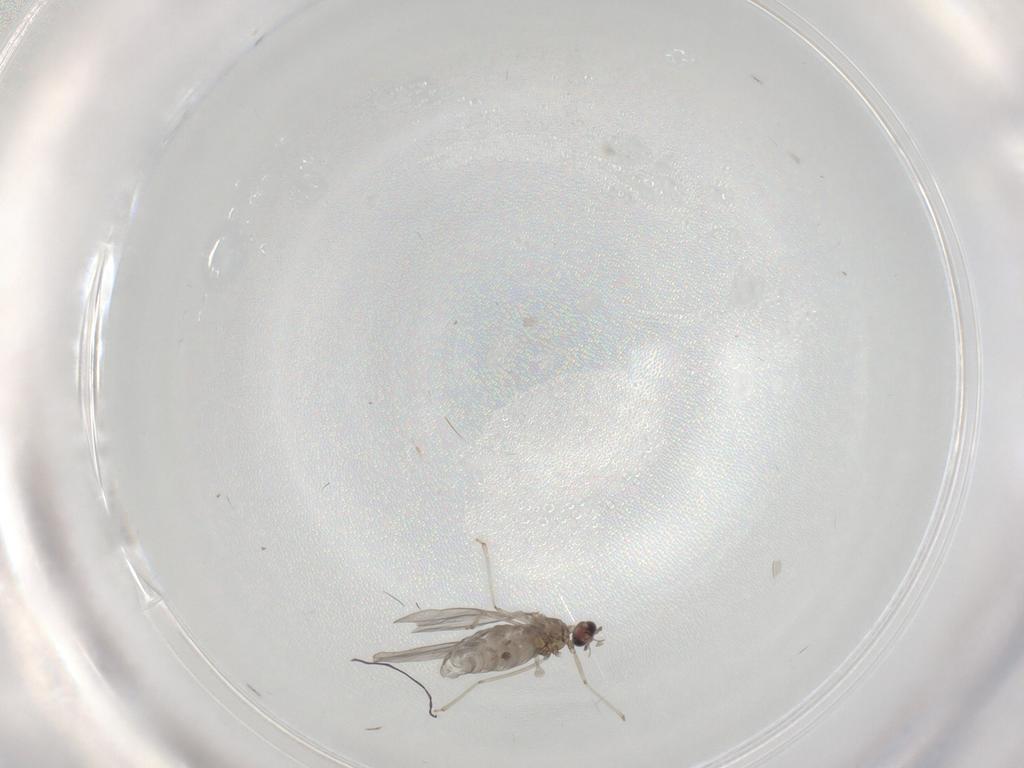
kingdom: Animalia
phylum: Arthropoda
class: Insecta
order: Diptera
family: Cecidomyiidae
